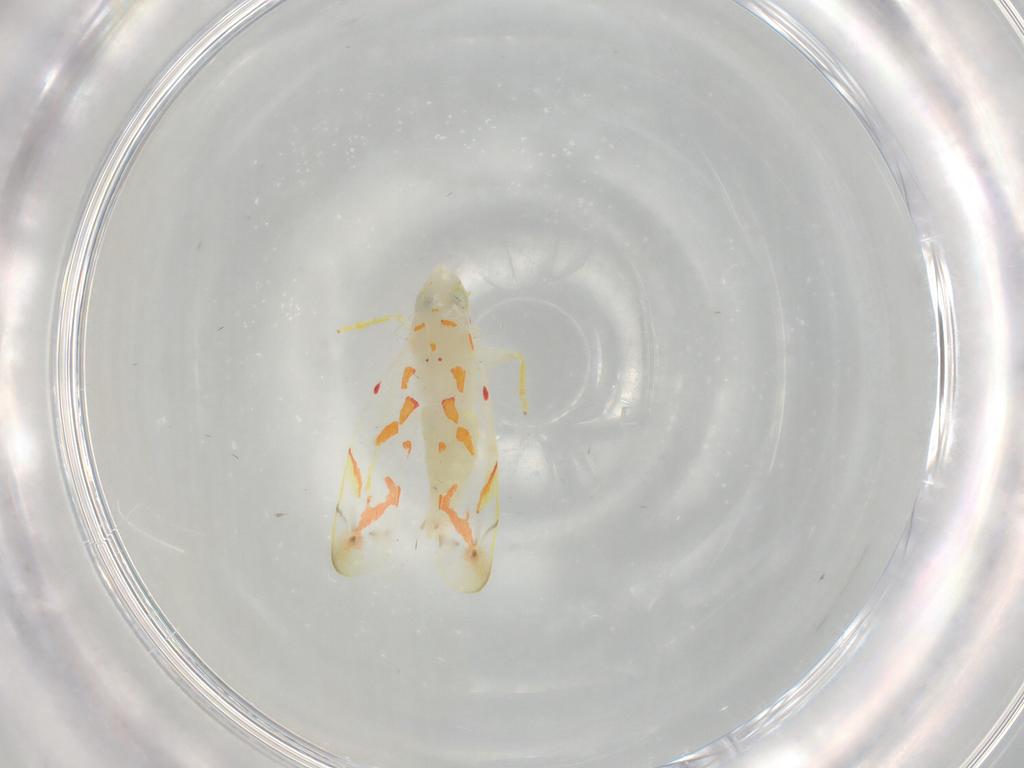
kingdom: Animalia
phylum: Arthropoda
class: Insecta
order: Hemiptera
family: Cicadellidae
